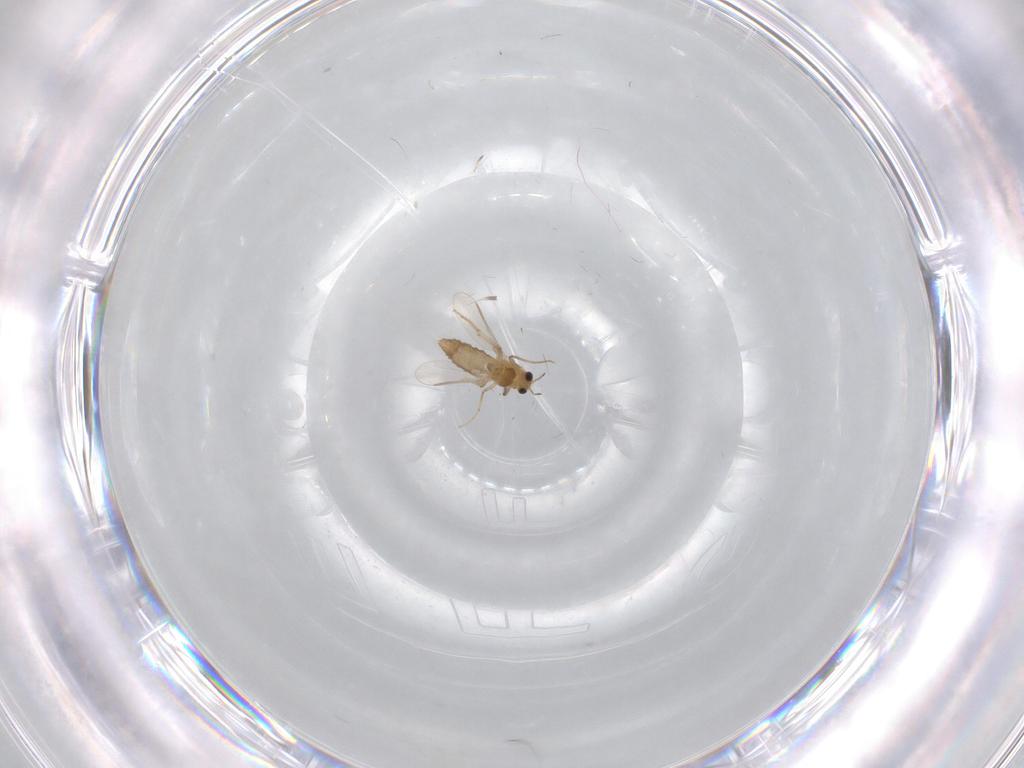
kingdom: Animalia
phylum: Arthropoda
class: Insecta
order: Diptera
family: Chironomidae
